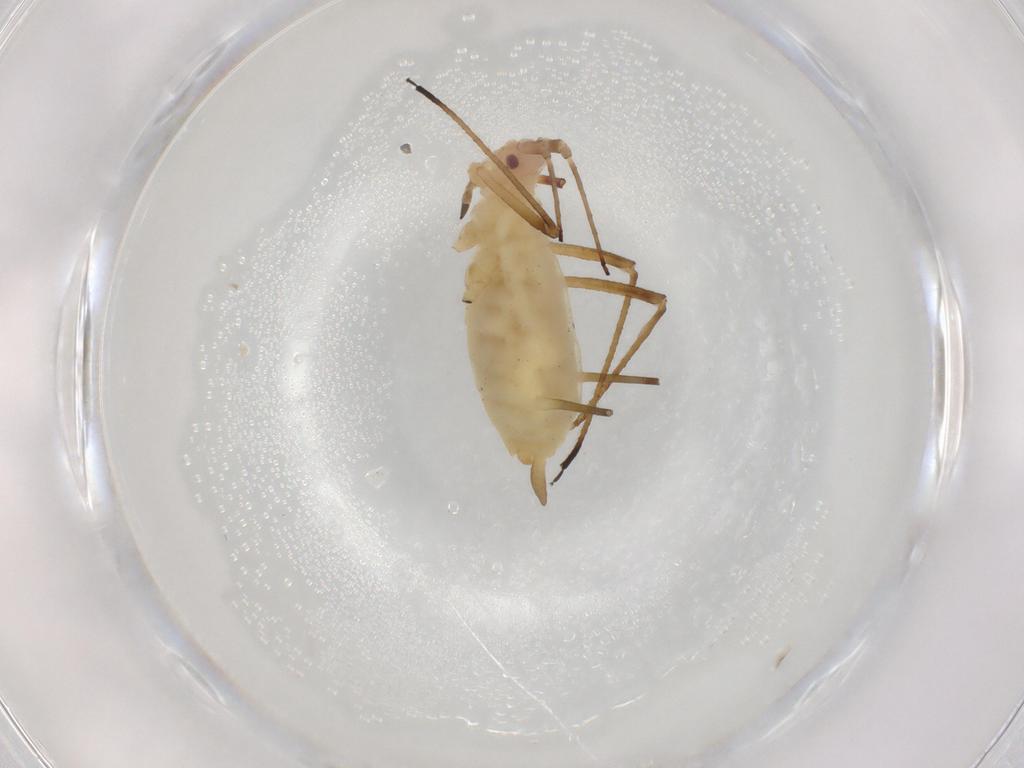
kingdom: Animalia
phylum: Arthropoda
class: Insecta
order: Hemiptera
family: Aphididae
